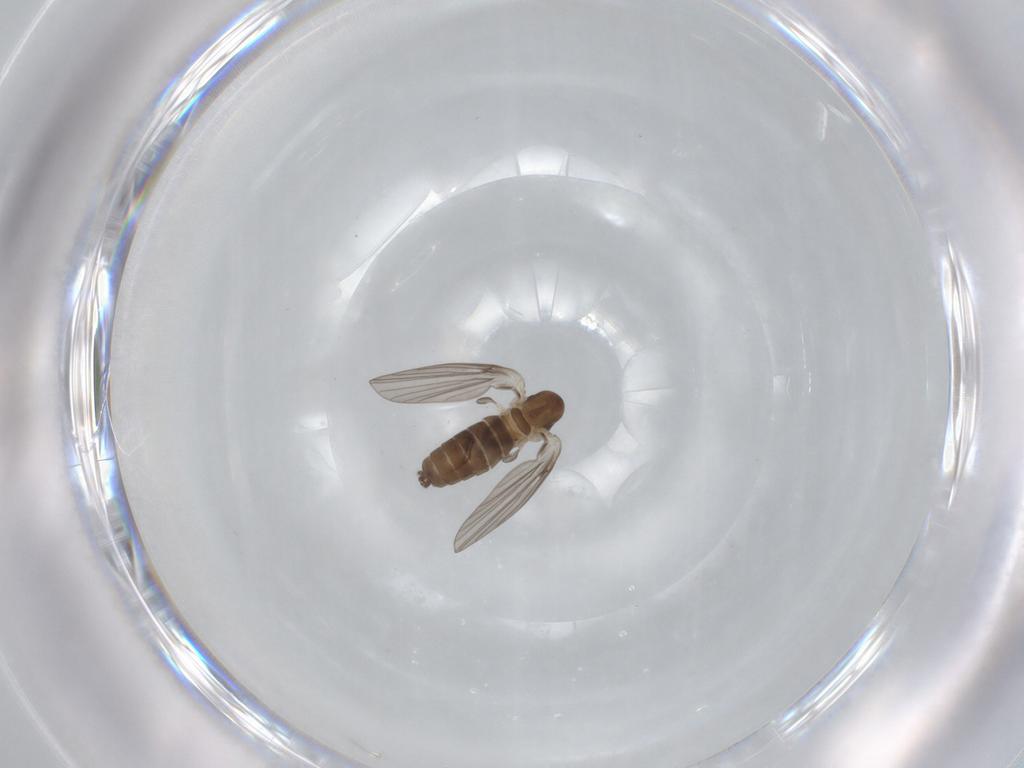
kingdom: Animalia
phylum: Arthropoda
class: Insecta
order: Diptera
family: Psychodidae
